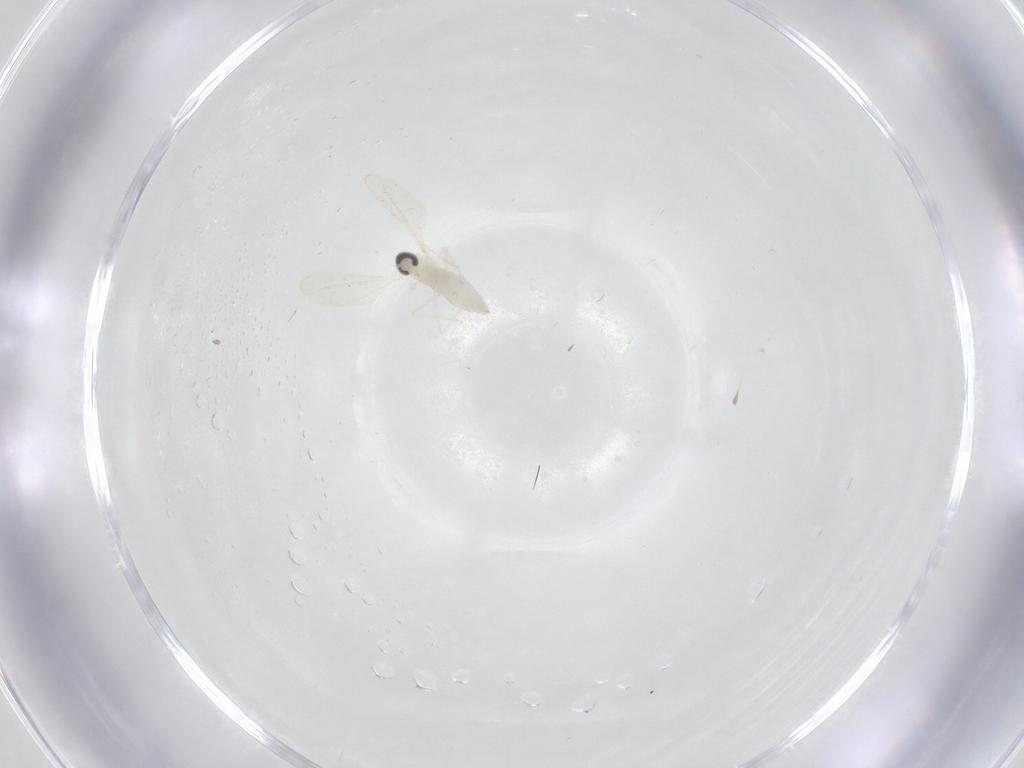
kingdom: Animalia
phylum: Arthropoda
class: Insecta
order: Diptera
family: Cecidomyiidae
